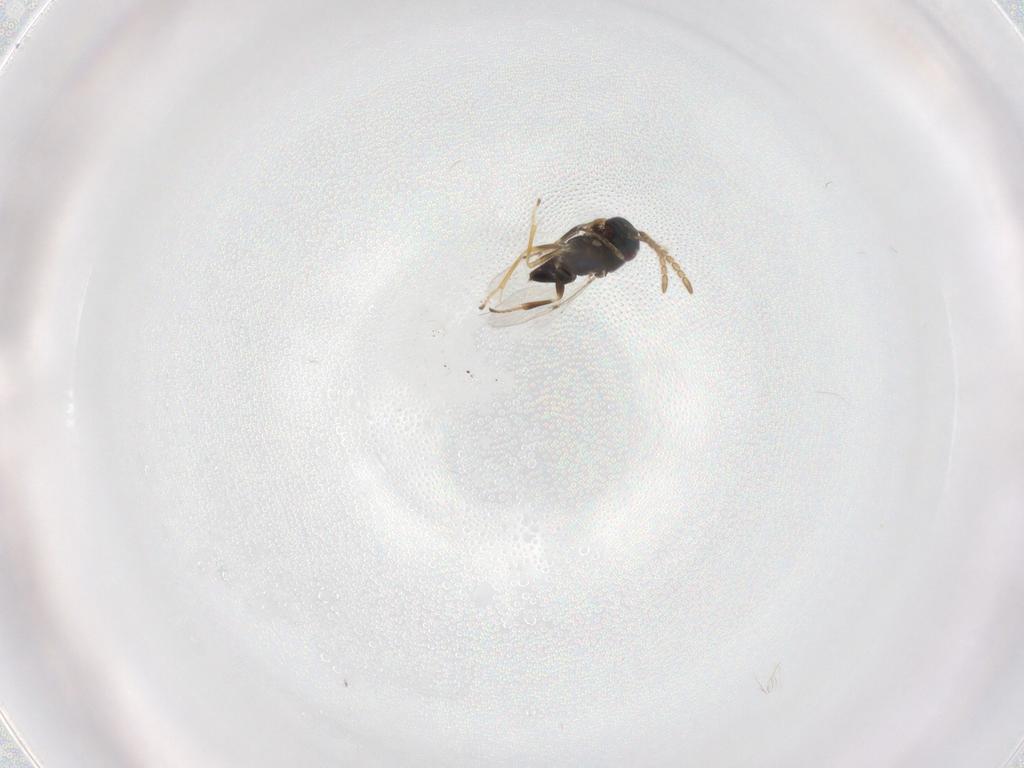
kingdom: Animalia
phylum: Arthropoda
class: Insecta
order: Hymenoptera
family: Encyrtidae
